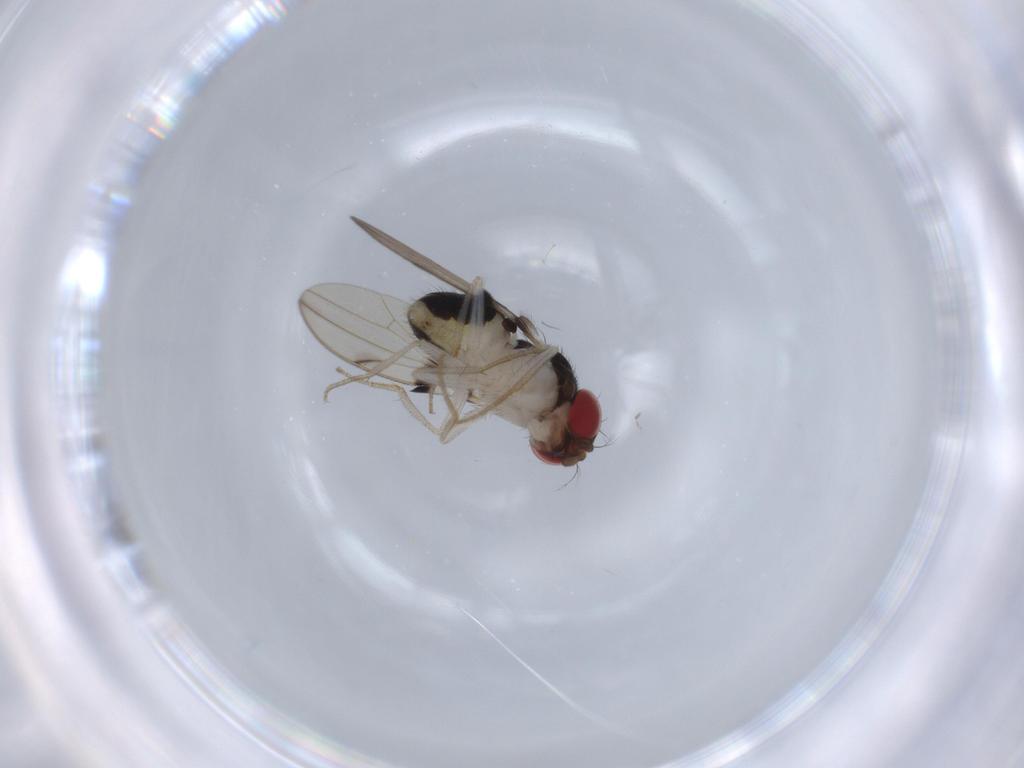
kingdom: Animalia
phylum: Arthropoda
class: Insecta
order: Diptera
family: Drosophilidae
